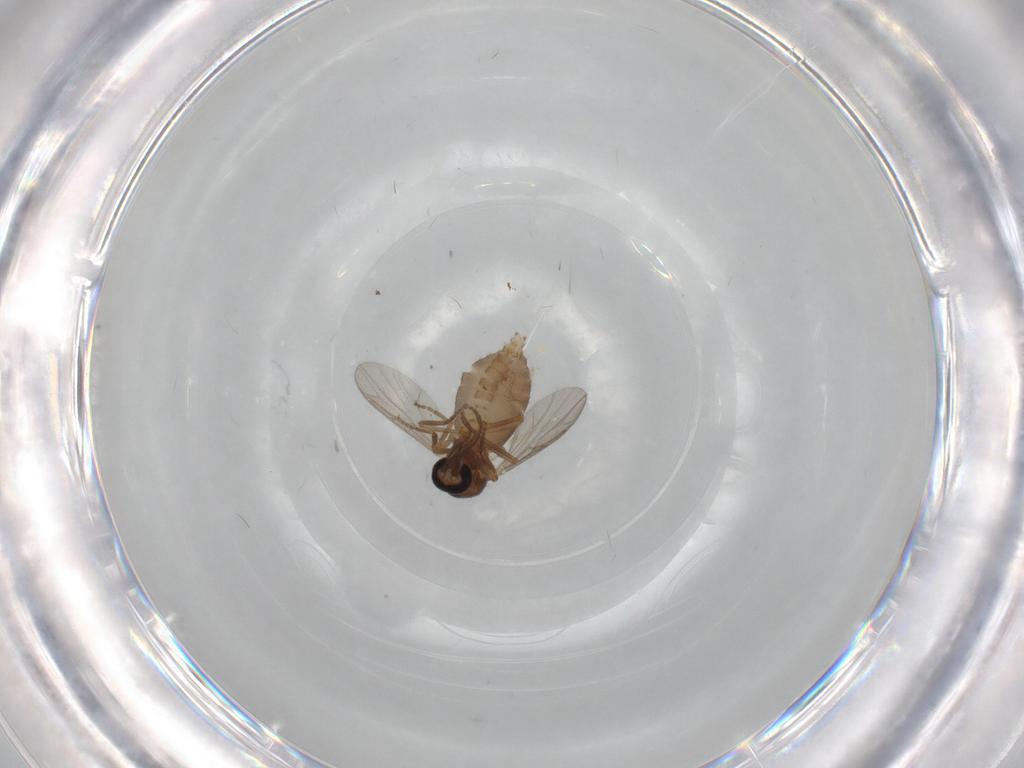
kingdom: Animalia
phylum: Arthropoda
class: Insecta
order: Diptera
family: Ceratopogonidae
